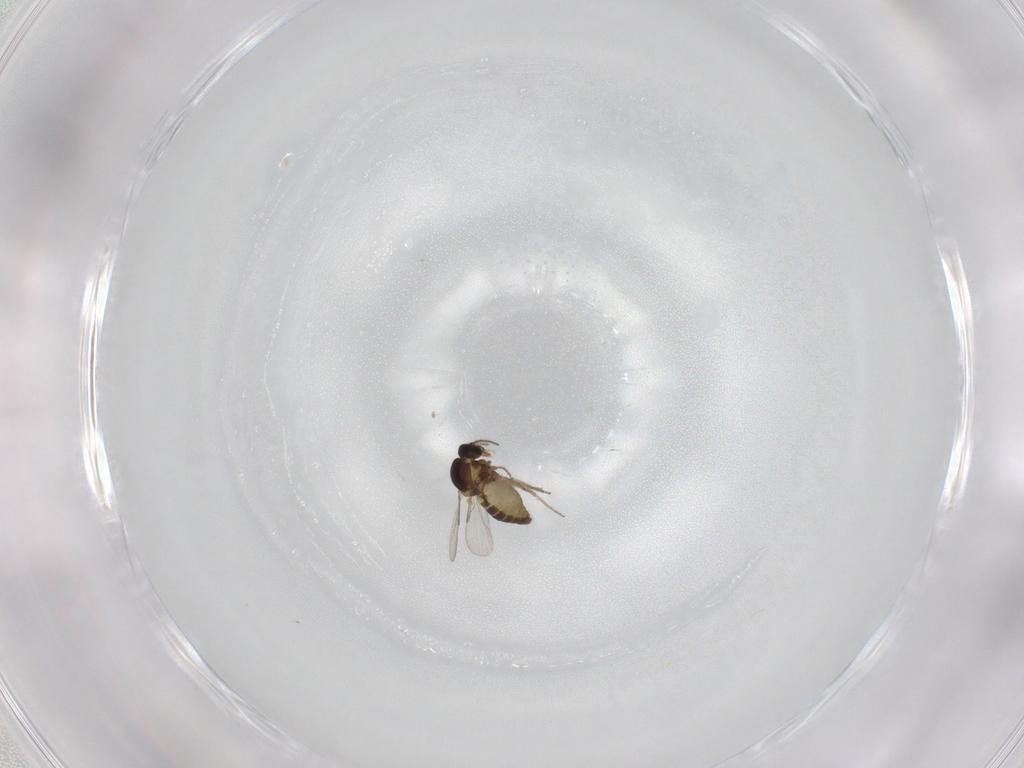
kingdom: Animalia
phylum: Arthropoda
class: Insecta
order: Diptera
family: Ceratopogonidae
